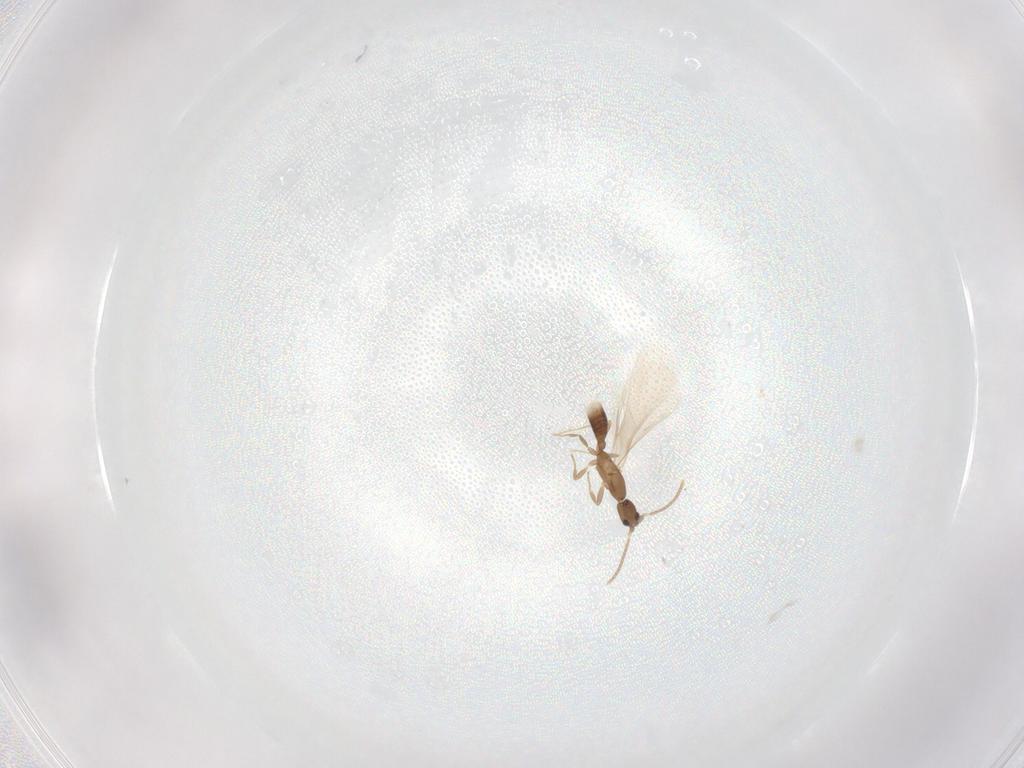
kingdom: Animalia
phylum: Arthropoda
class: Insecta
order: Hymenoptera
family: Formicidae
